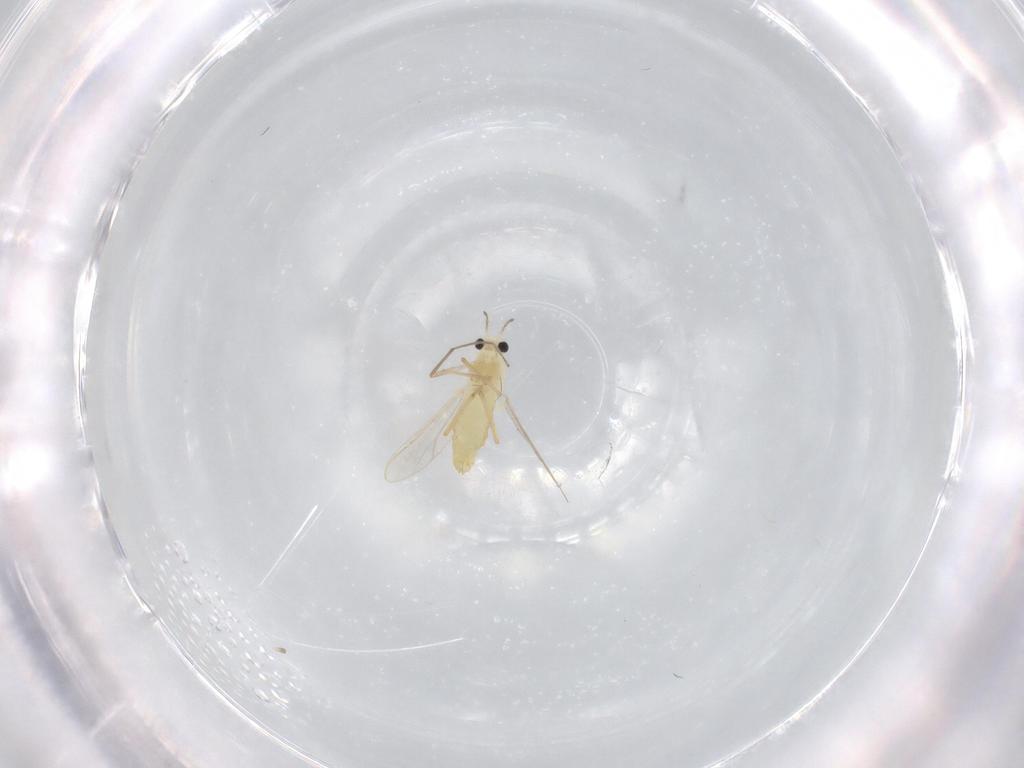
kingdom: Animalia
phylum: Arthropoda
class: Insecta
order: Diptera
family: Chironomidae
